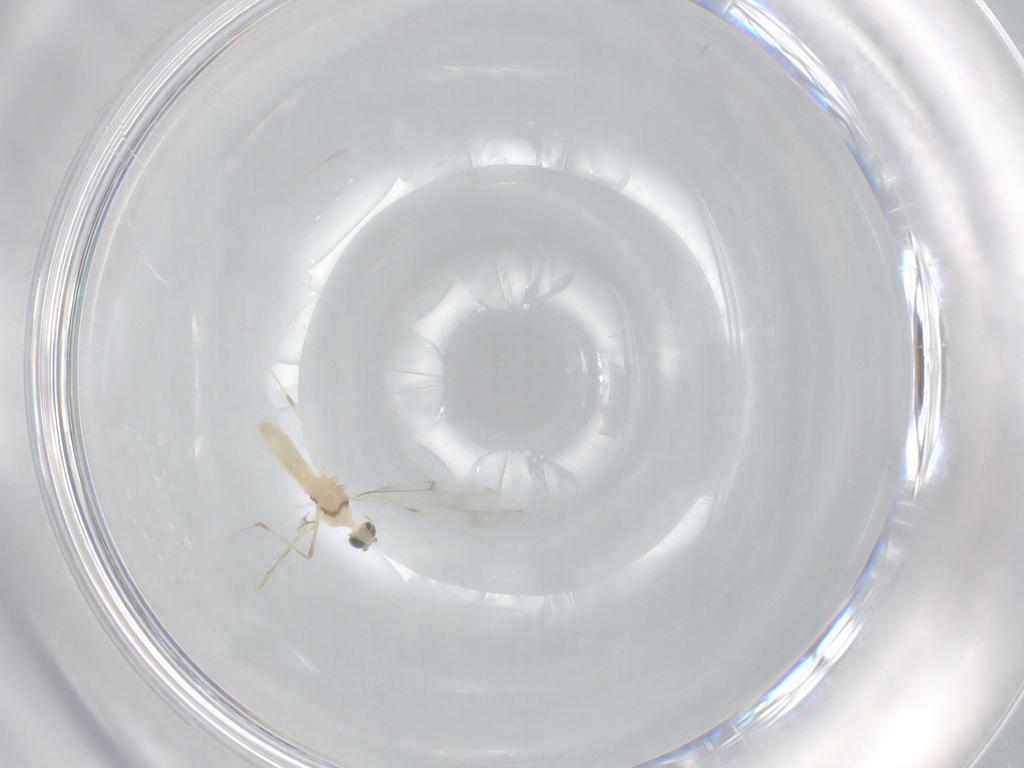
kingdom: Animalia
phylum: Arthropoda
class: Insecta
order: Diptera
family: Cecidomyiidae
